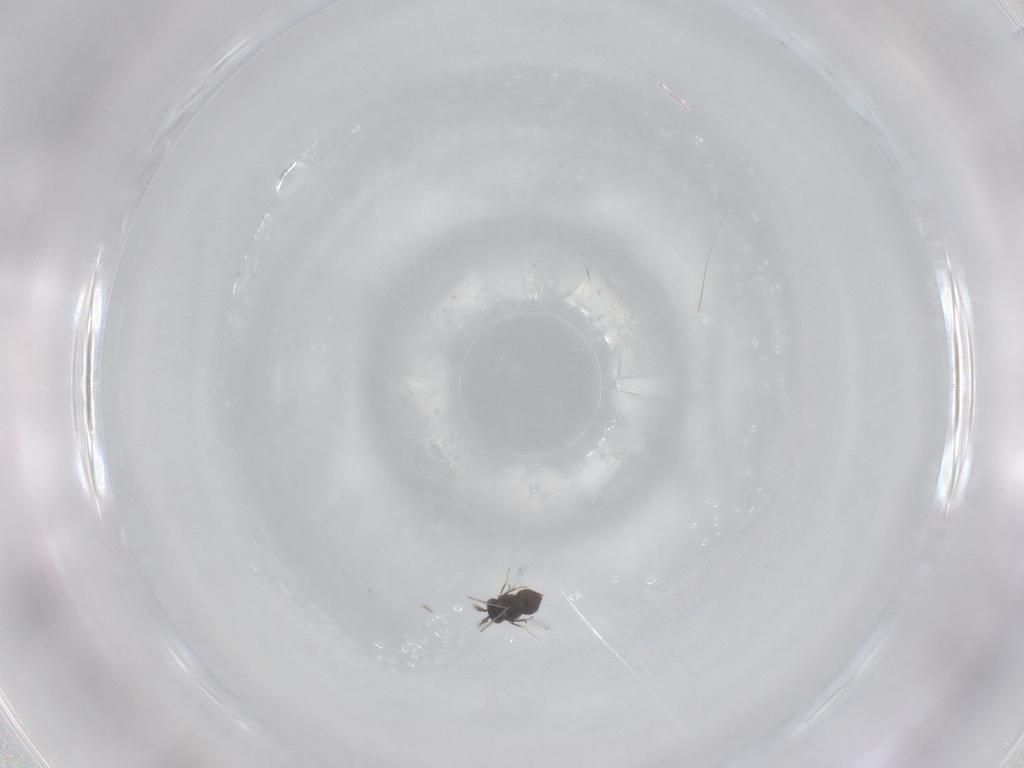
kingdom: Animalia
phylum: Arthropoda
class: Insecta
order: Hymenoptera
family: Trichogrammatidae
